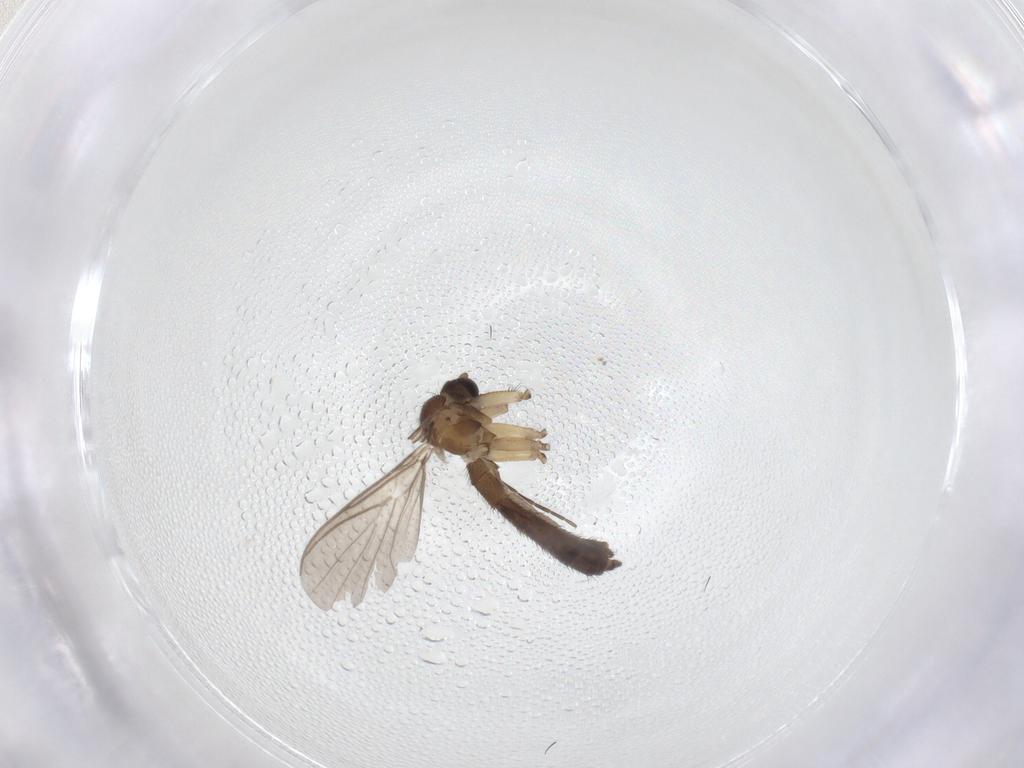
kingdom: Animalia
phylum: Arthropoda
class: Insecta
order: Diptera
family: Keroplatidae
